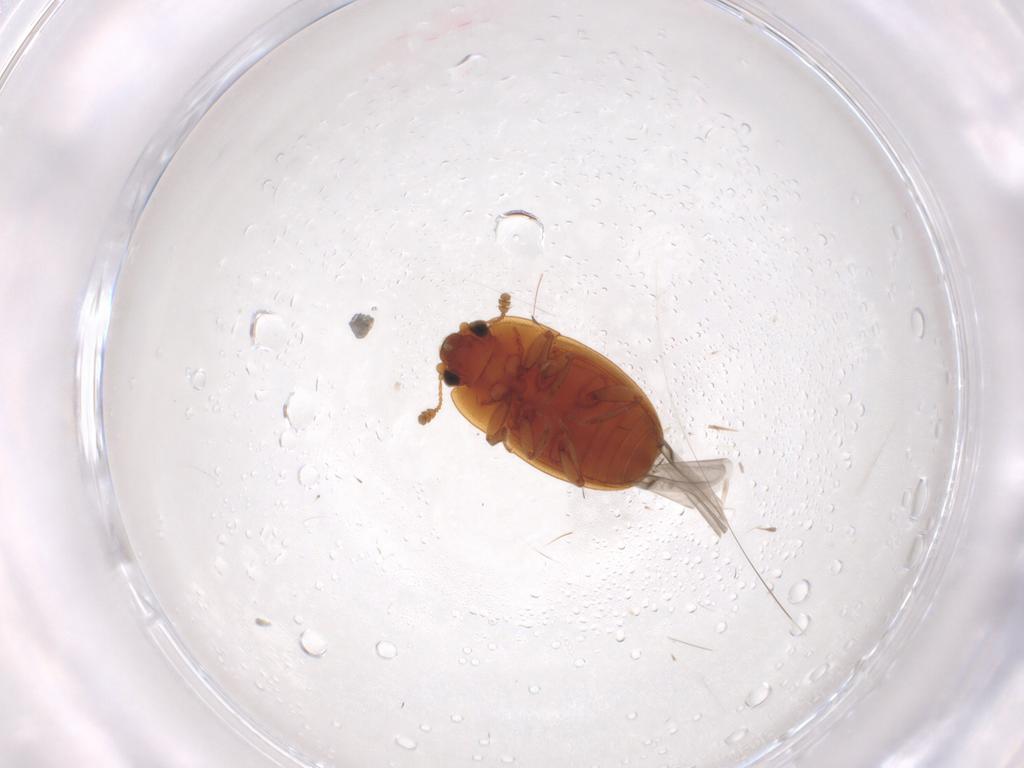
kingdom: Animalia
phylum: Arthropoda
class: Insecta
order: Coleoptera
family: Nitidulidae
